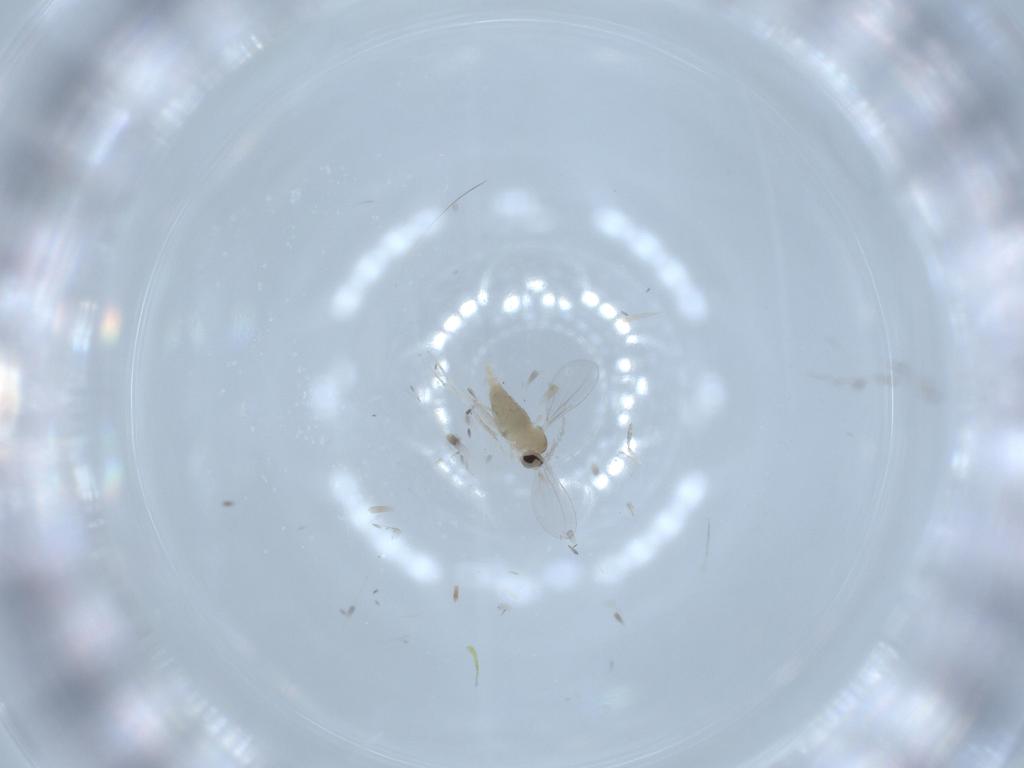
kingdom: Animalia
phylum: Arthropoda
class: Insecta
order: Diptera
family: Cecidomyiidae
